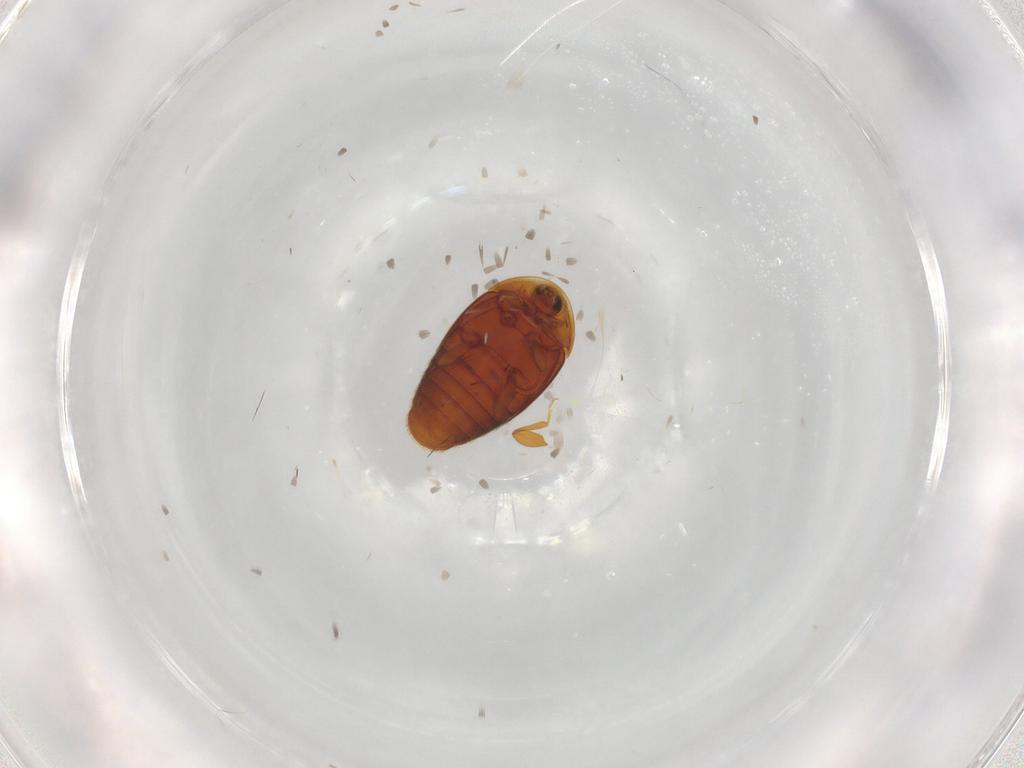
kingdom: Animalia
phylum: Arthropoda
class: Insecta
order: Coleoptera
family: Corylophidae
